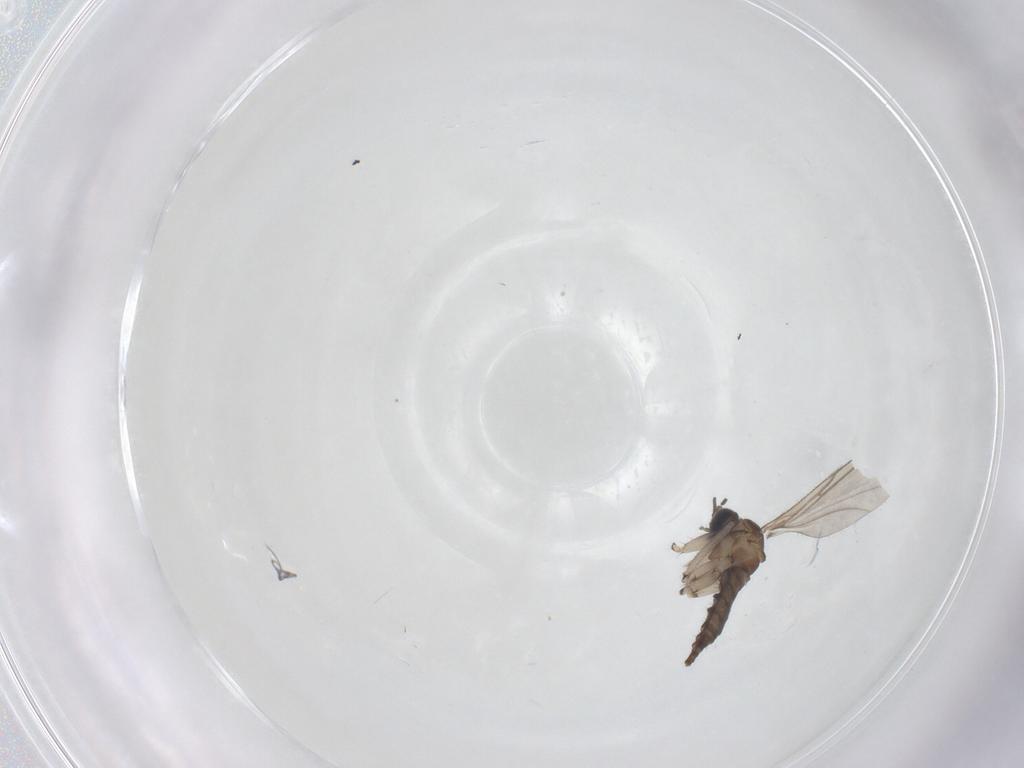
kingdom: Animalia
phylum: Arthropoda
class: Insecta
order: Diptera
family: Sciaridae
